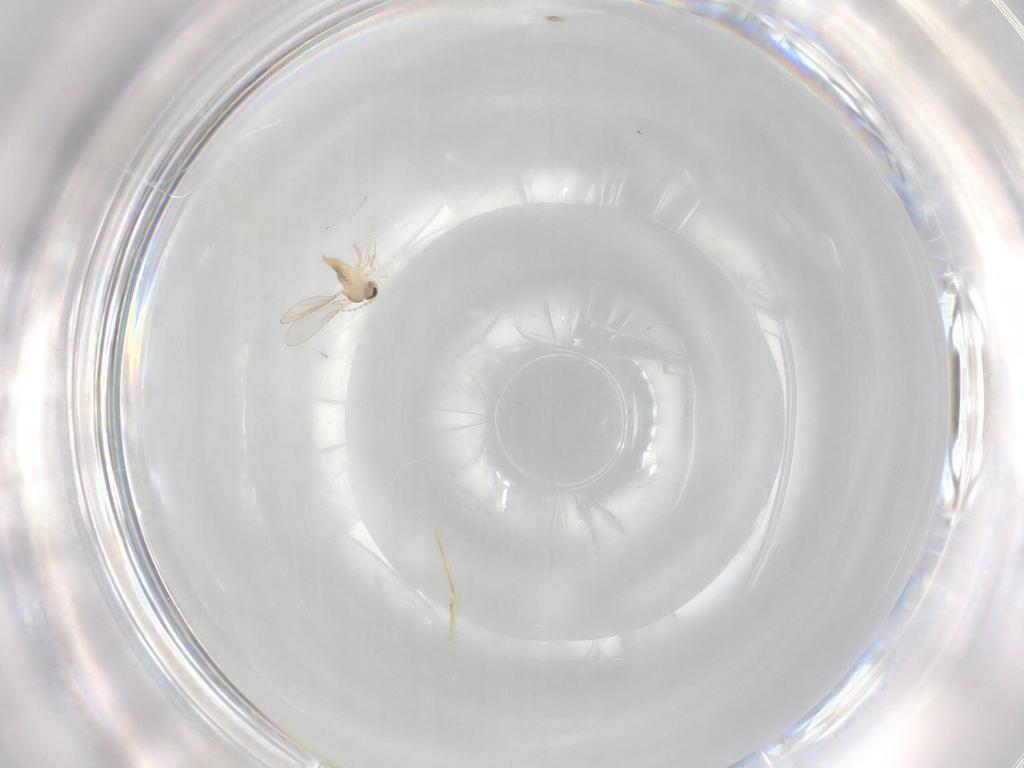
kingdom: Animalia
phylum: Arthropoda
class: Insecta
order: Diptera
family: Cecidomyiidae
